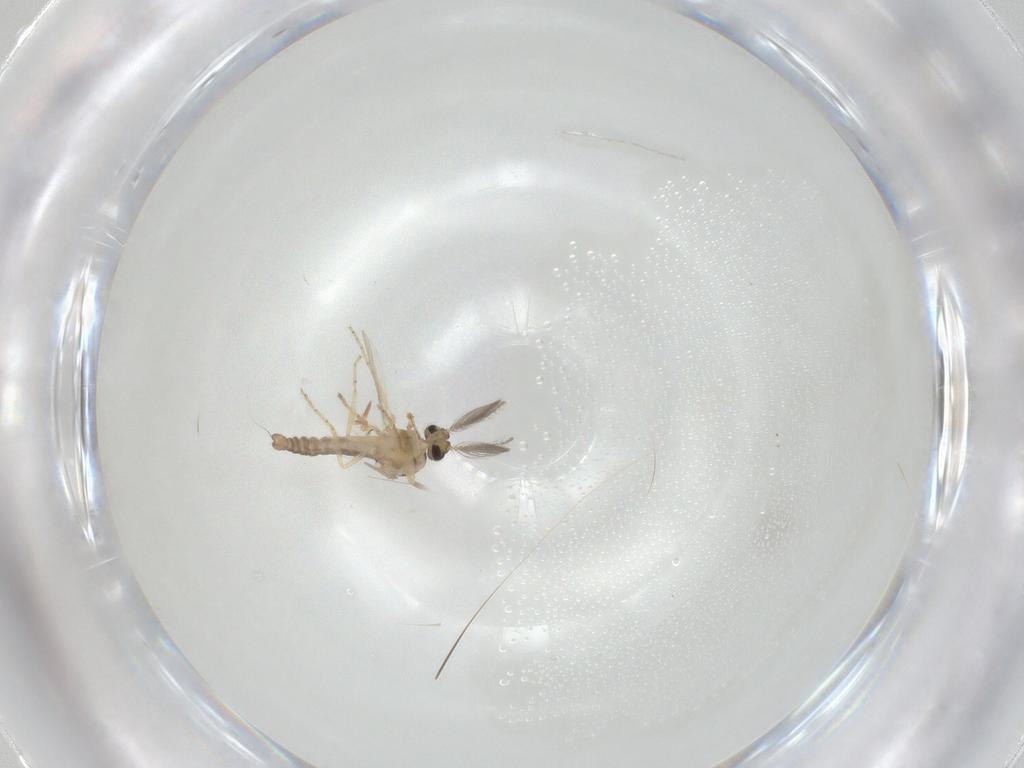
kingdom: Animalia
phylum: Arthropoda
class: Insecta
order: Diptera
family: Ceratopogonidae
